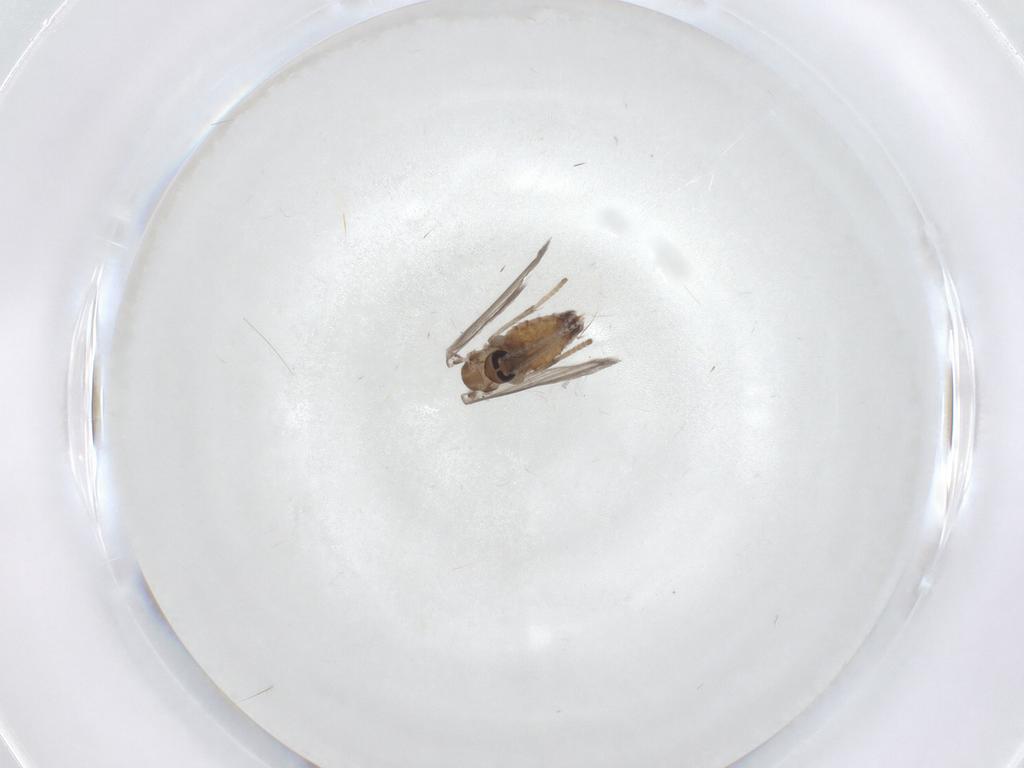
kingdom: Animalia
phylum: Arthropoda
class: Insecta
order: Diptera
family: Psychodidae
